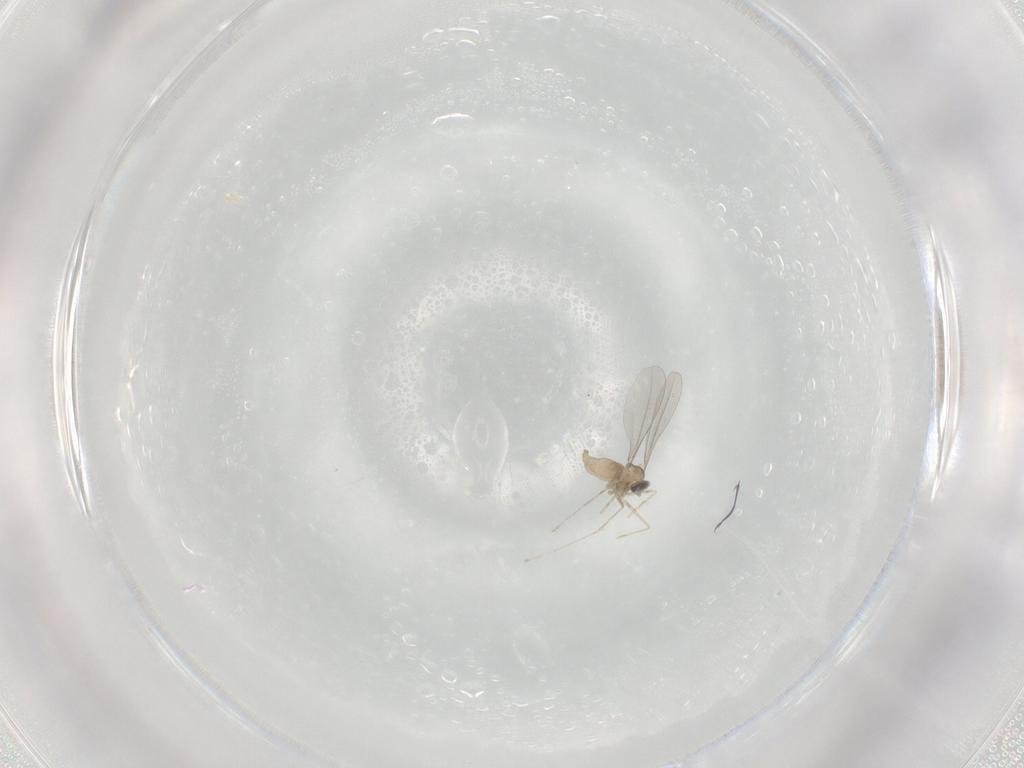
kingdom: Animalia
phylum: Arthropoda
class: Insecta
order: Diptera
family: Cecidomyiidae
